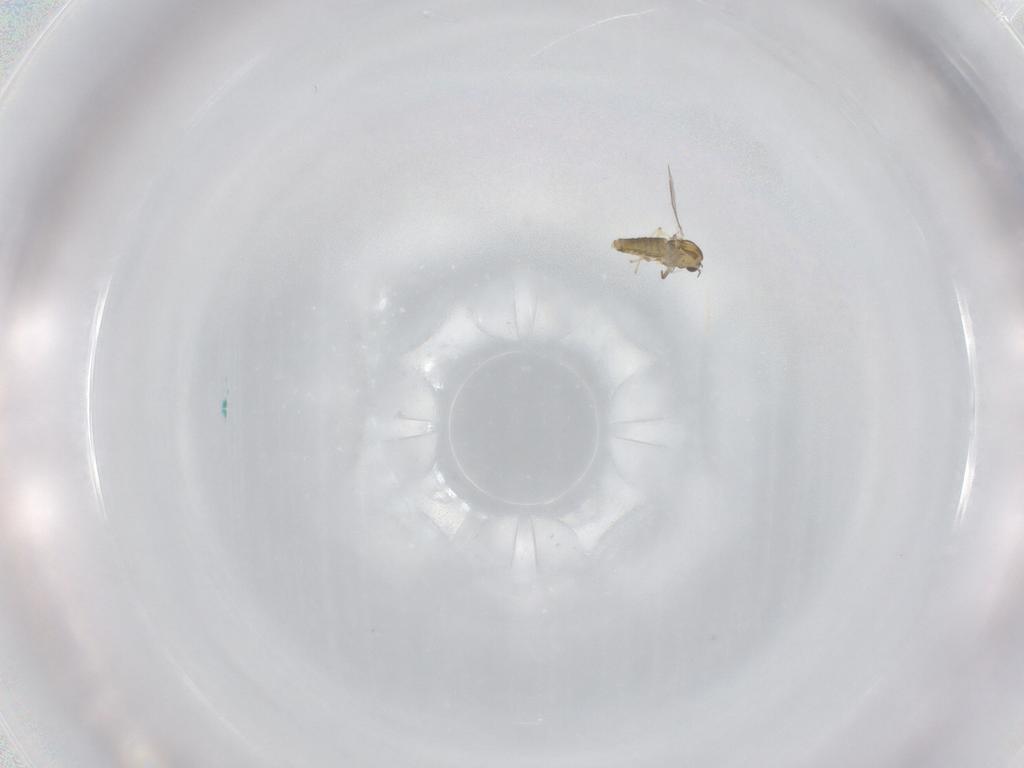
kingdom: Animalia
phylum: Arthropoda
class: Insecta
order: Diptera
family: Chironomidae
